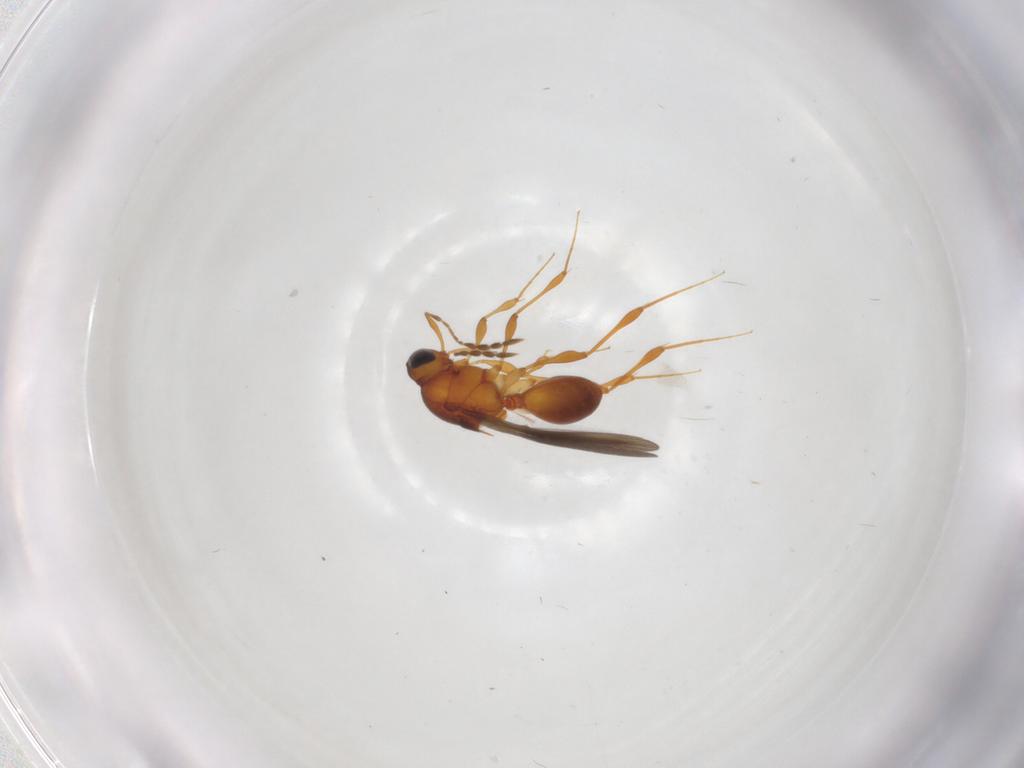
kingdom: Animalia
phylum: Arthropoda
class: Insecta
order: Hymenoptera
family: Platygastridae
